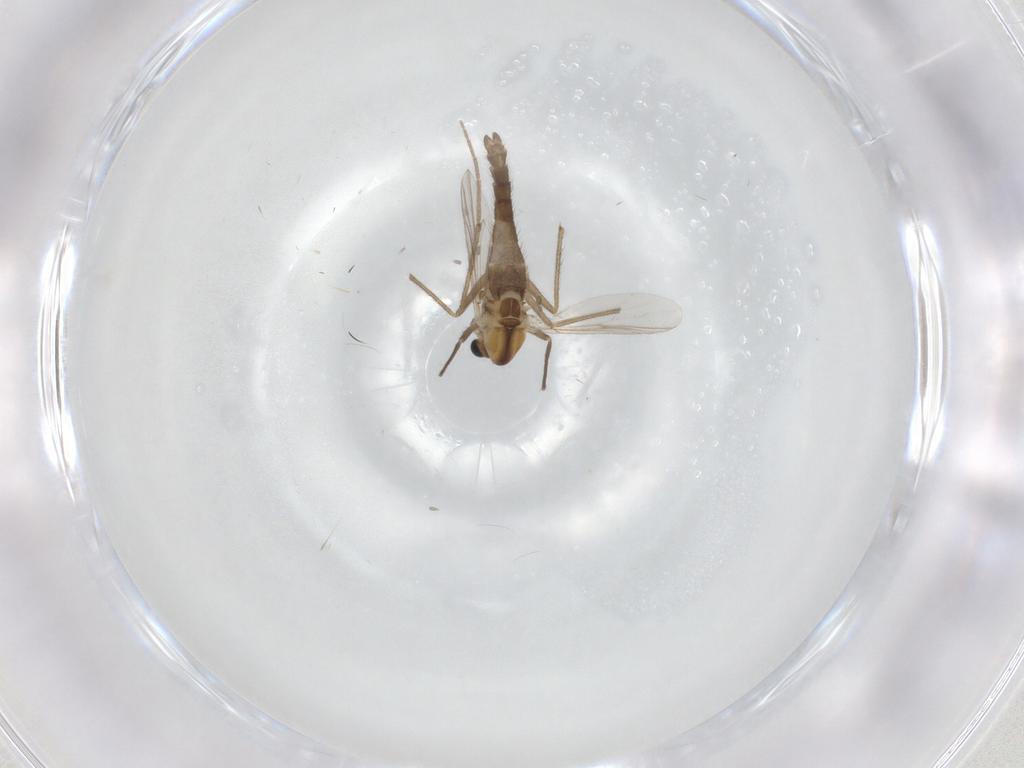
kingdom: Animalia
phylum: Arthropoda
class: Insecta
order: Diptera
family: Chironomidae
